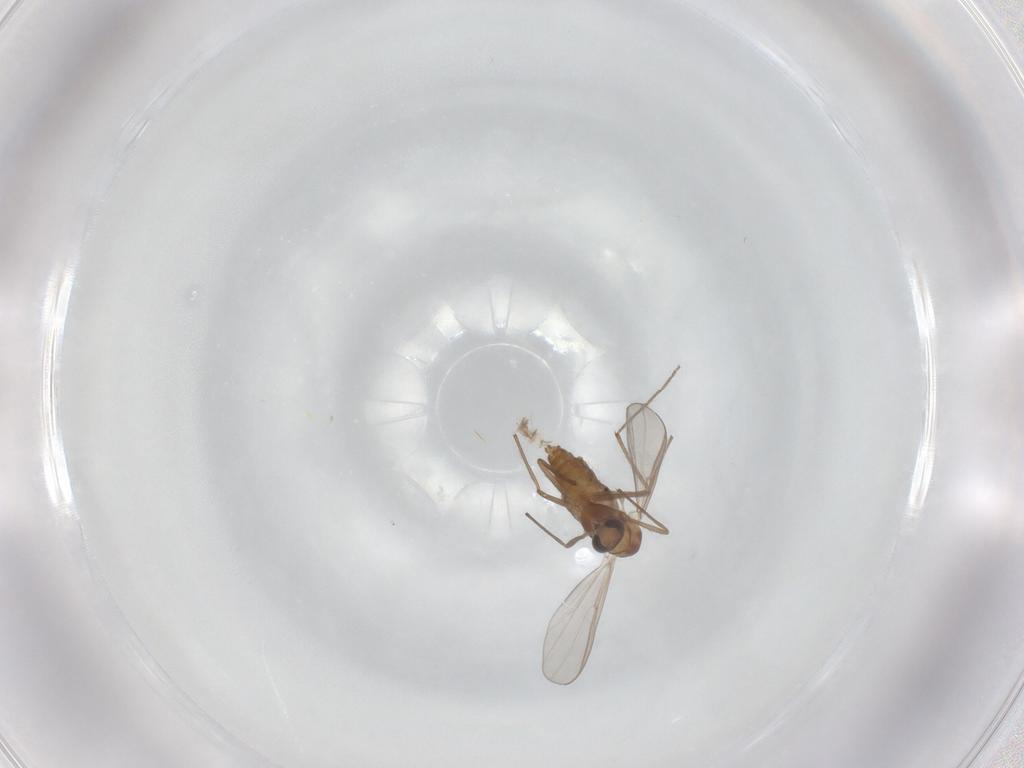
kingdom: Animalia
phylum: Arthropoda
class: Insecta
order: Diptera
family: Chironomidae
